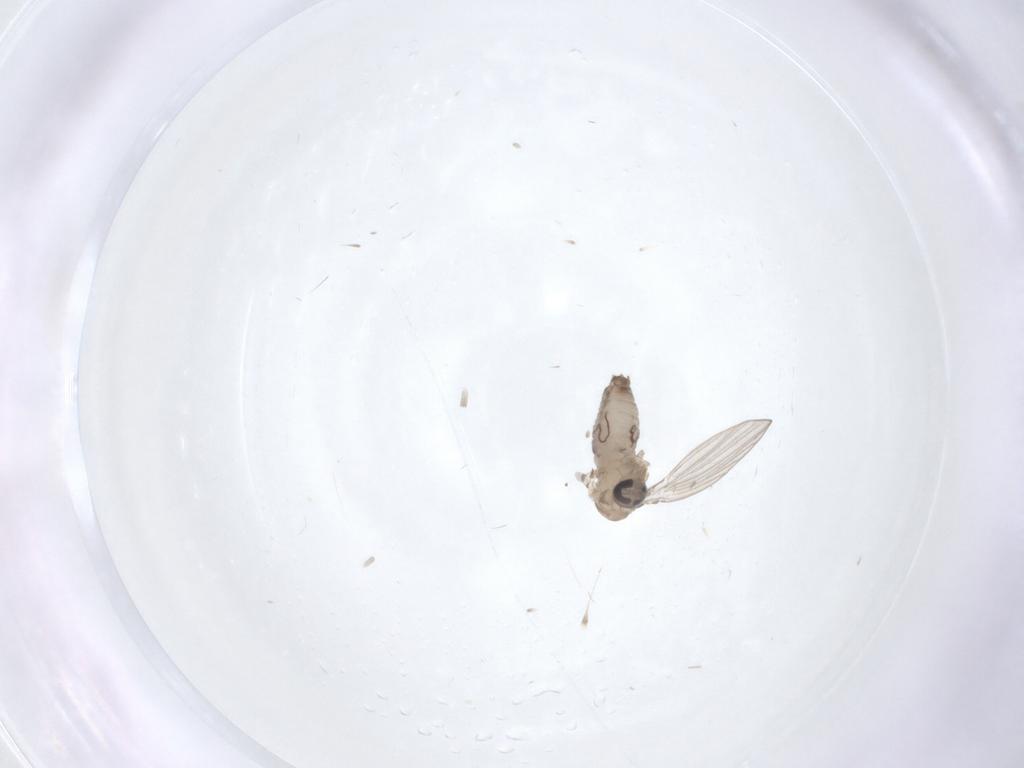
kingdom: Animalia
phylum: Arthropoda
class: Insecta
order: Diptera
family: Psychodidae
